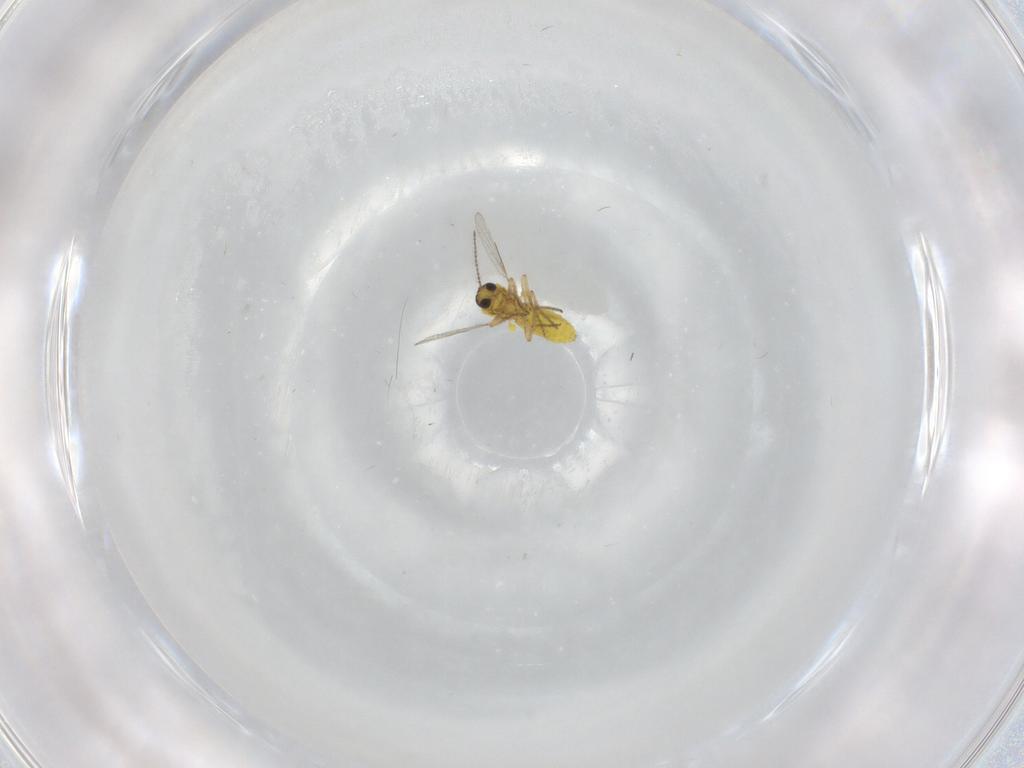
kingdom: Animalia
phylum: Arthropoda
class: Insecta
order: Diptera
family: Ceratopogonidae
